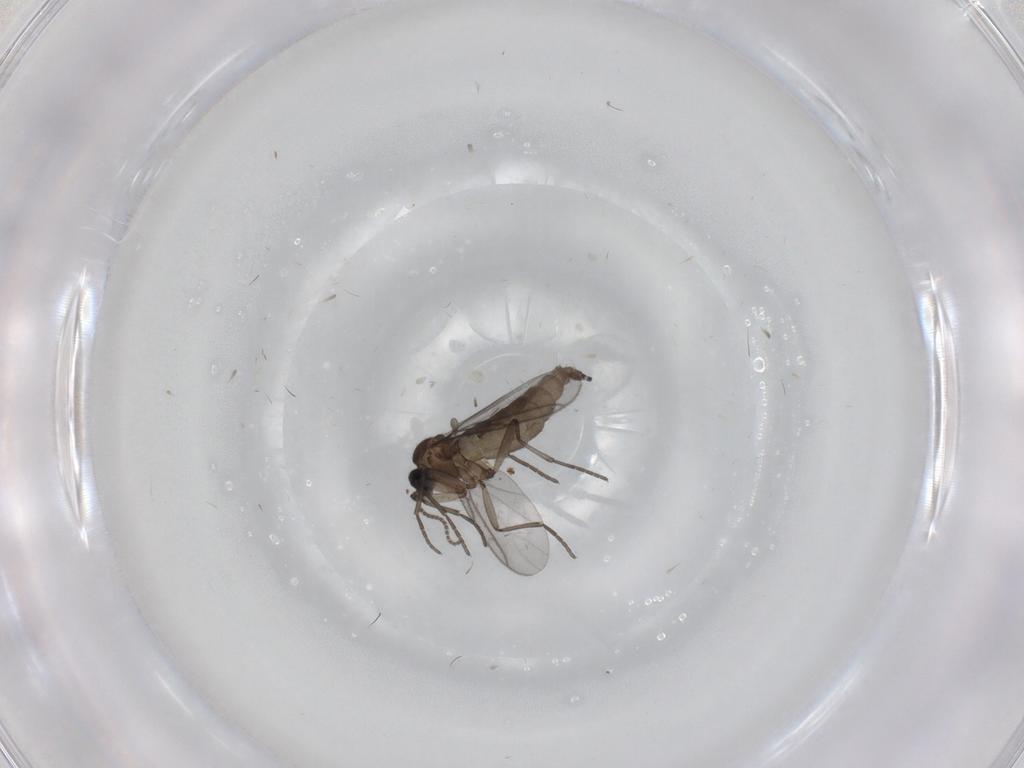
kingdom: Animalia
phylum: Arthropoda
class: Insecta
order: Diptera
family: Sciaridae
